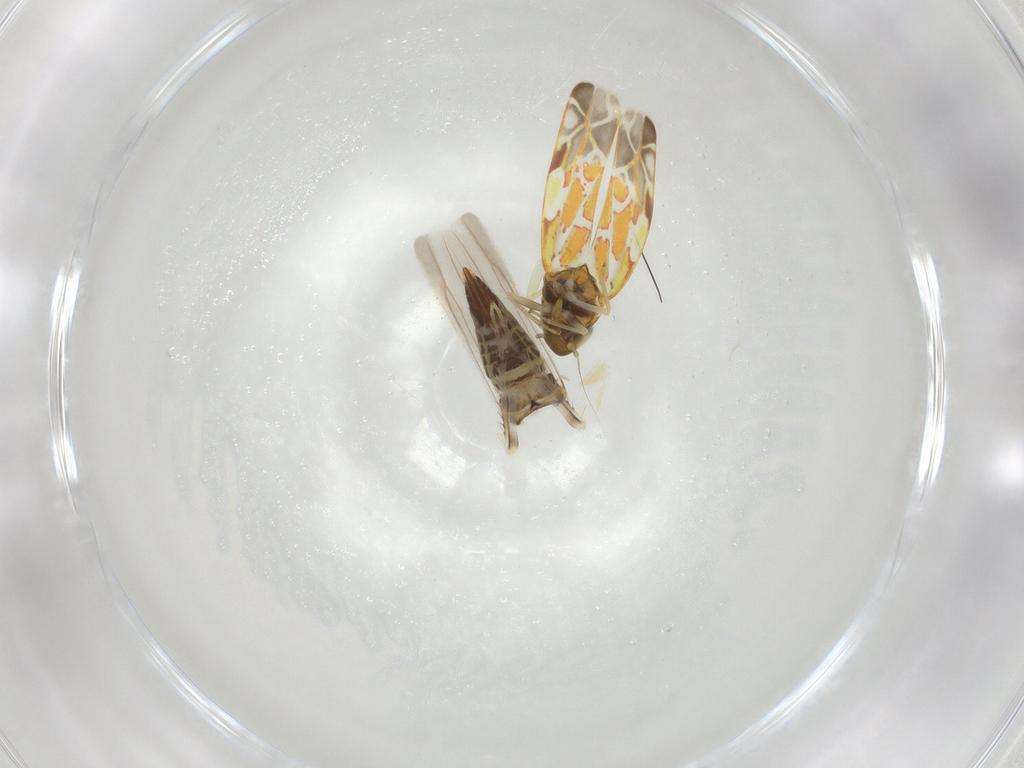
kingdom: Animalia
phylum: Arthropoda
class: Insecta
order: Hemiptera
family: Cicadellidae
